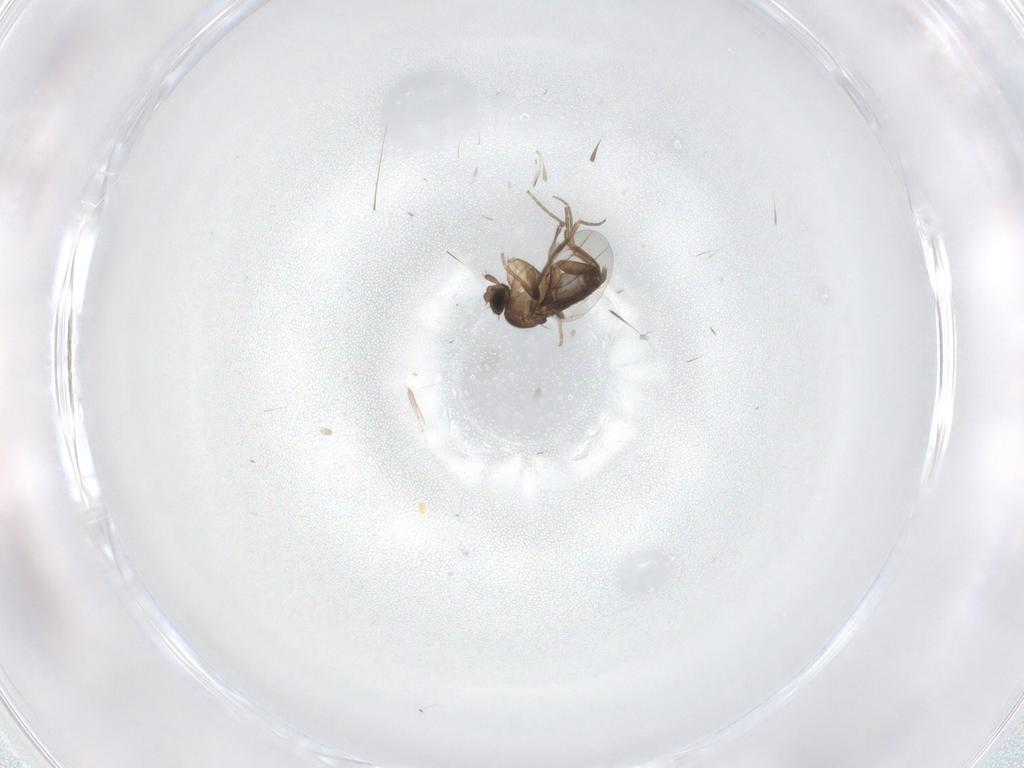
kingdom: Animalia
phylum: Arthropoda
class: Insecta
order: Diptera
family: Phoridae
